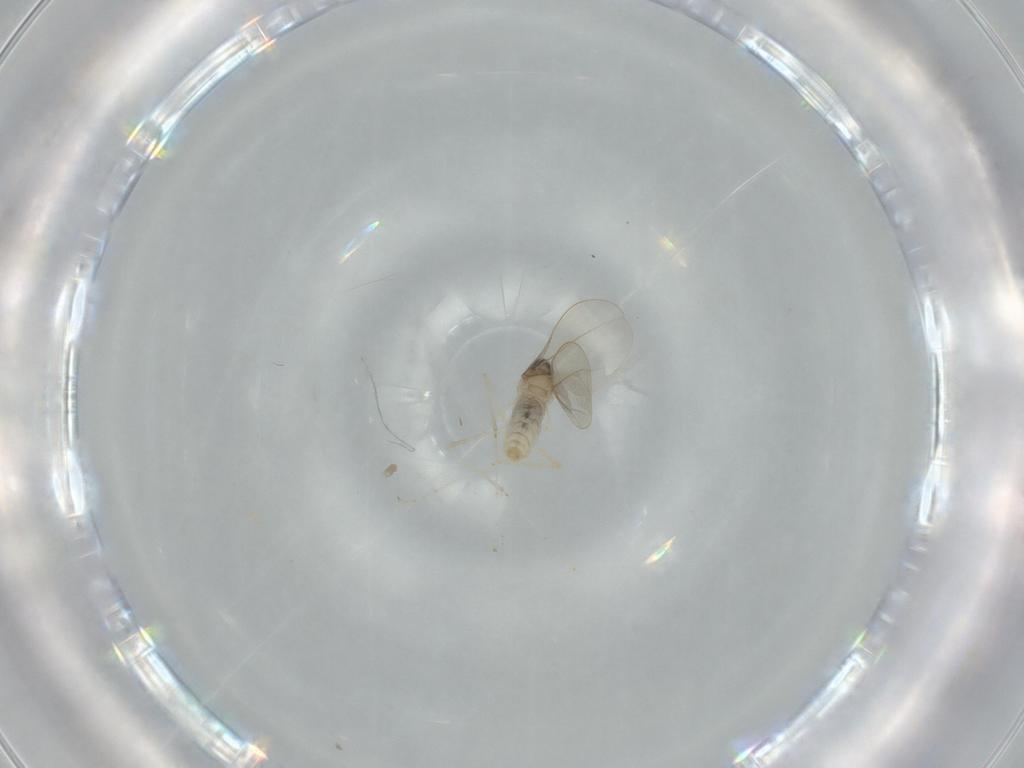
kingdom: Animalia
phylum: Arthropoda
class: Insecta
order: Diptera
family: Cecidomyiidae
